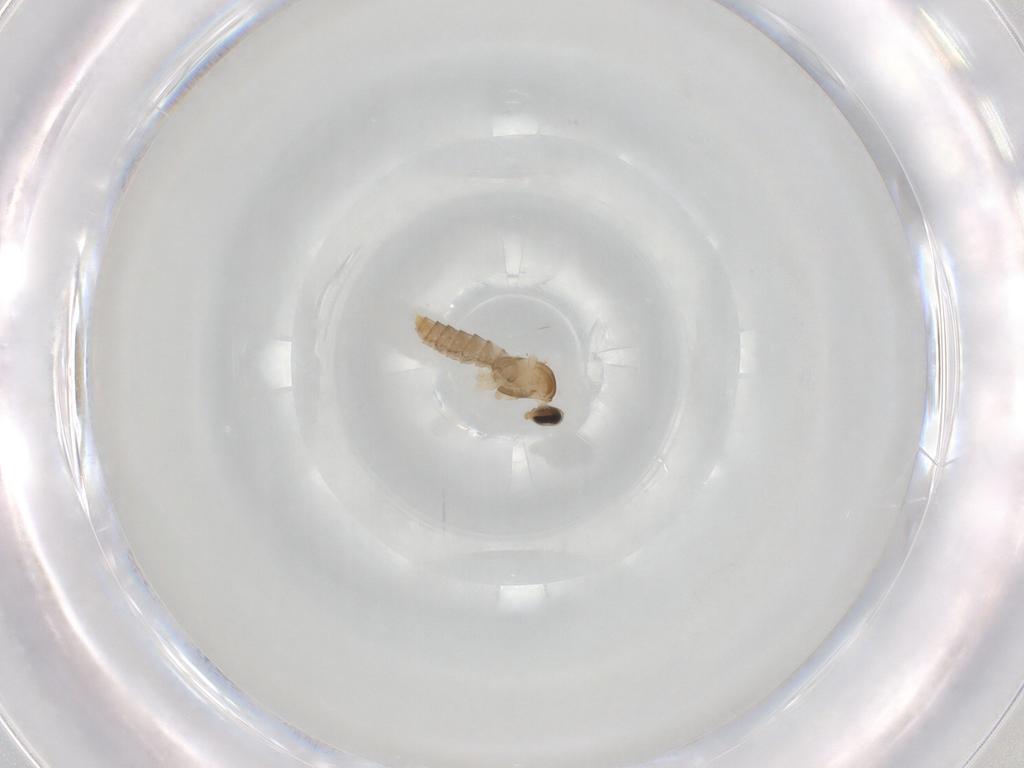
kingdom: Animalia
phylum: Arthropoda
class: Insecta
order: Diptera
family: Cecidomyiidae
